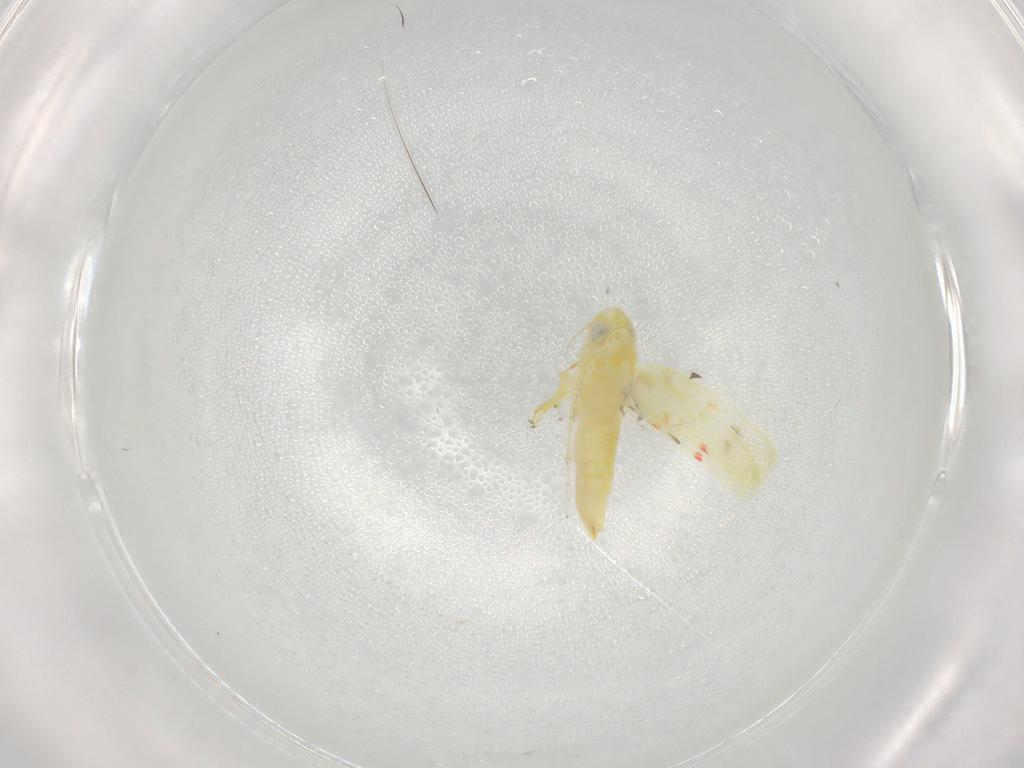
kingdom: Animalia
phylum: Arthropoda
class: Insecta
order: Hemiptera
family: Cicadellidae
